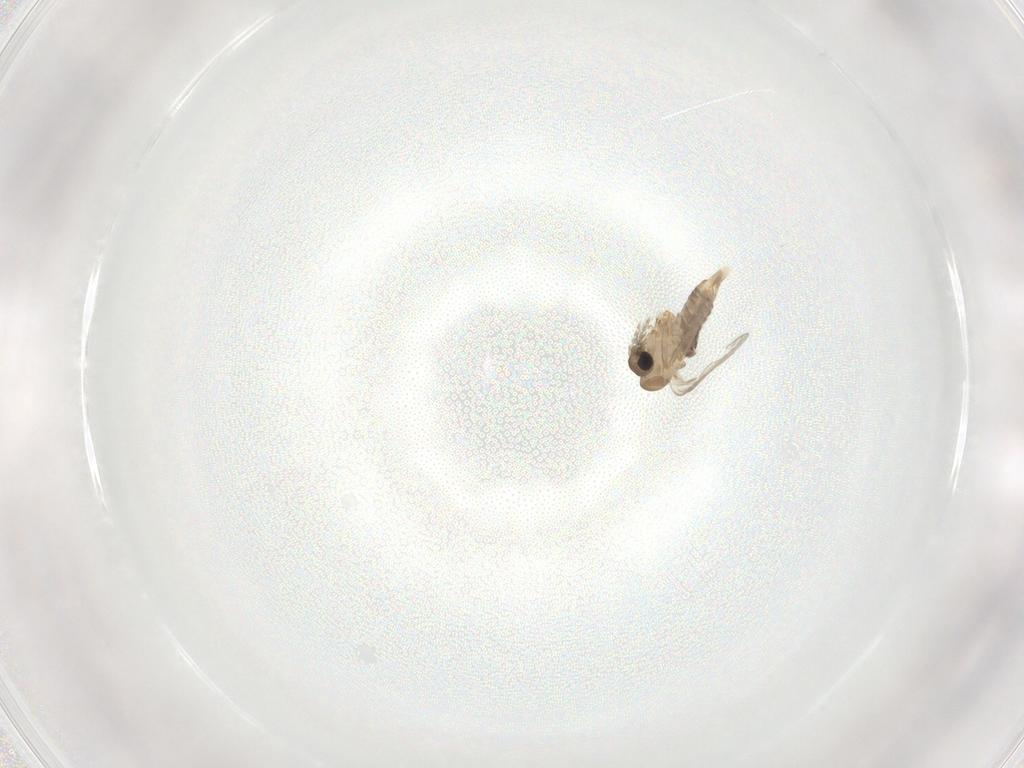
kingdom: Animalia
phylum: Arthropoda
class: Insecta
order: Diptera
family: Psychodidae
